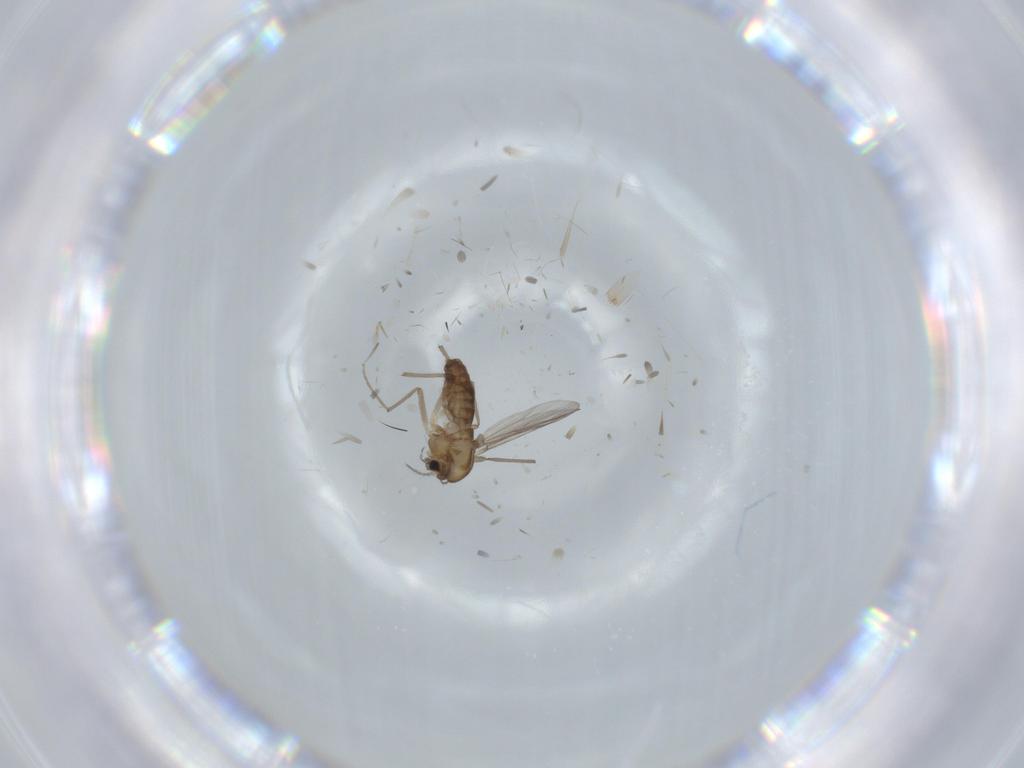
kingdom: Animalia
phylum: Arthropoda
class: Insecta
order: Diptera
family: Chironomidae
